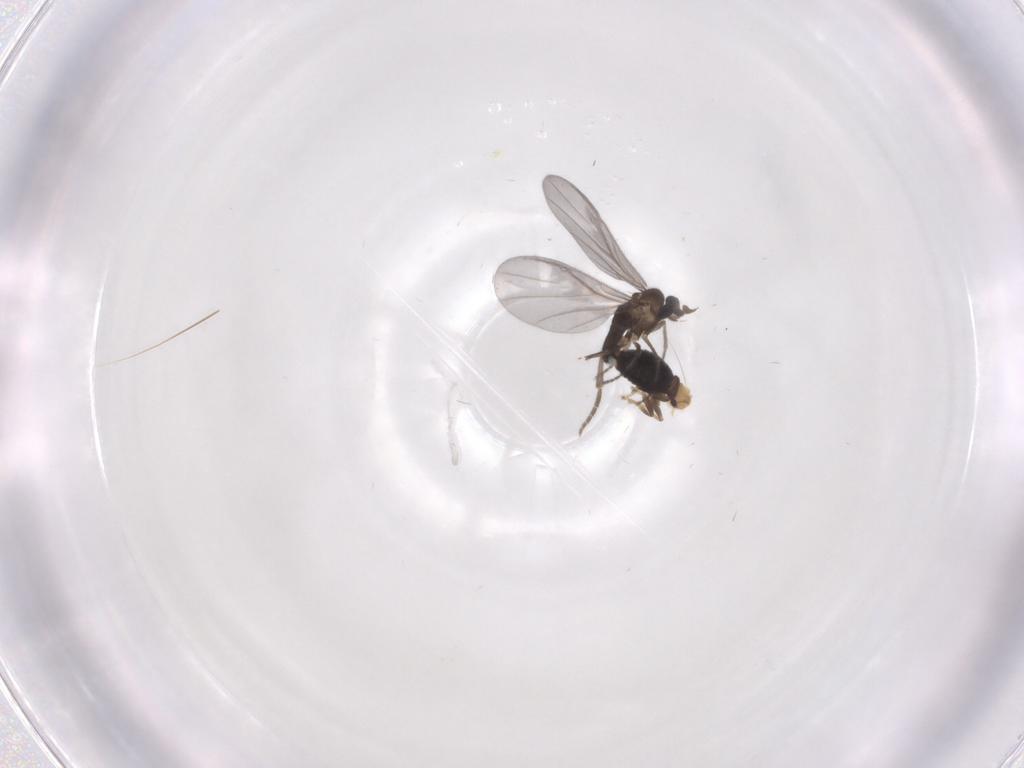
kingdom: Animalia
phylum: Arthropoda
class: Insecta
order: Diptera
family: Phoridae
